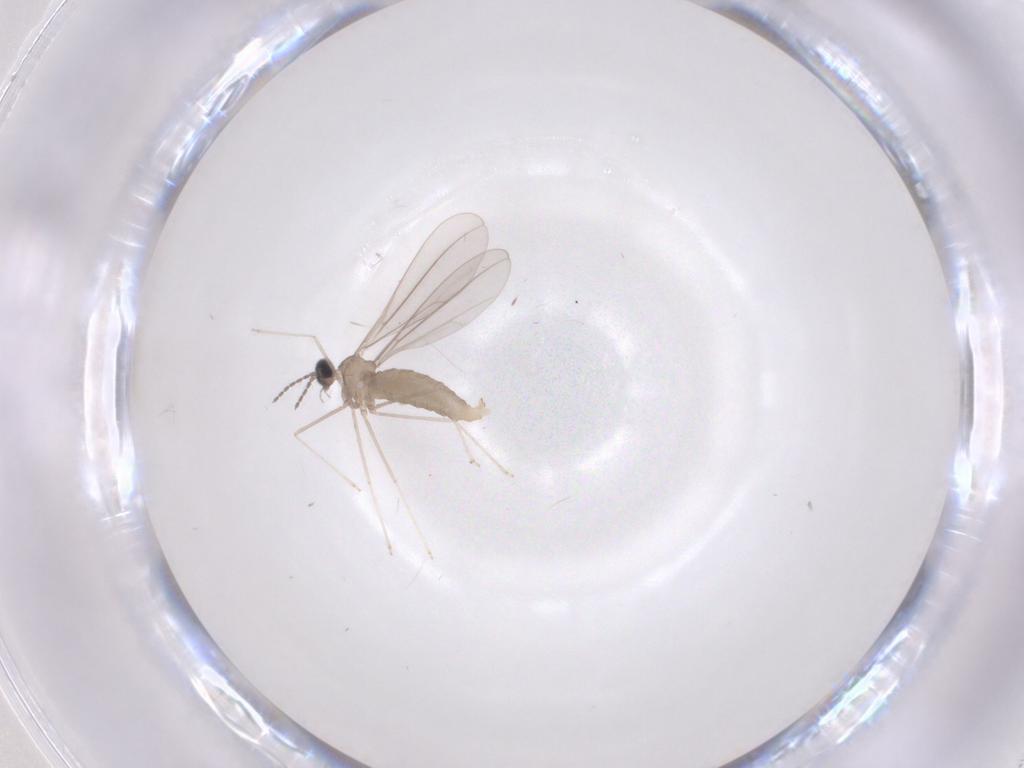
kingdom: Animalia
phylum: Arthropoda
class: Insecta
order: Diptera
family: Cecidomyiidae
